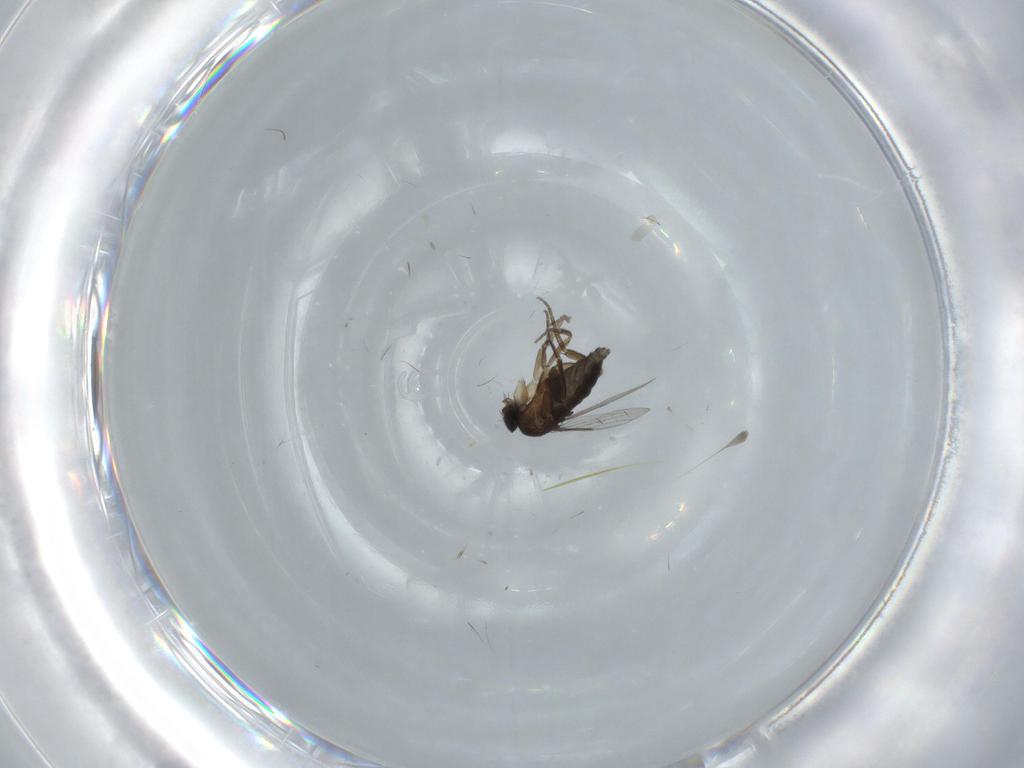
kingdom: Animalia
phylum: Arthropoda
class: Insecta
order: Diptera
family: Phoridae
